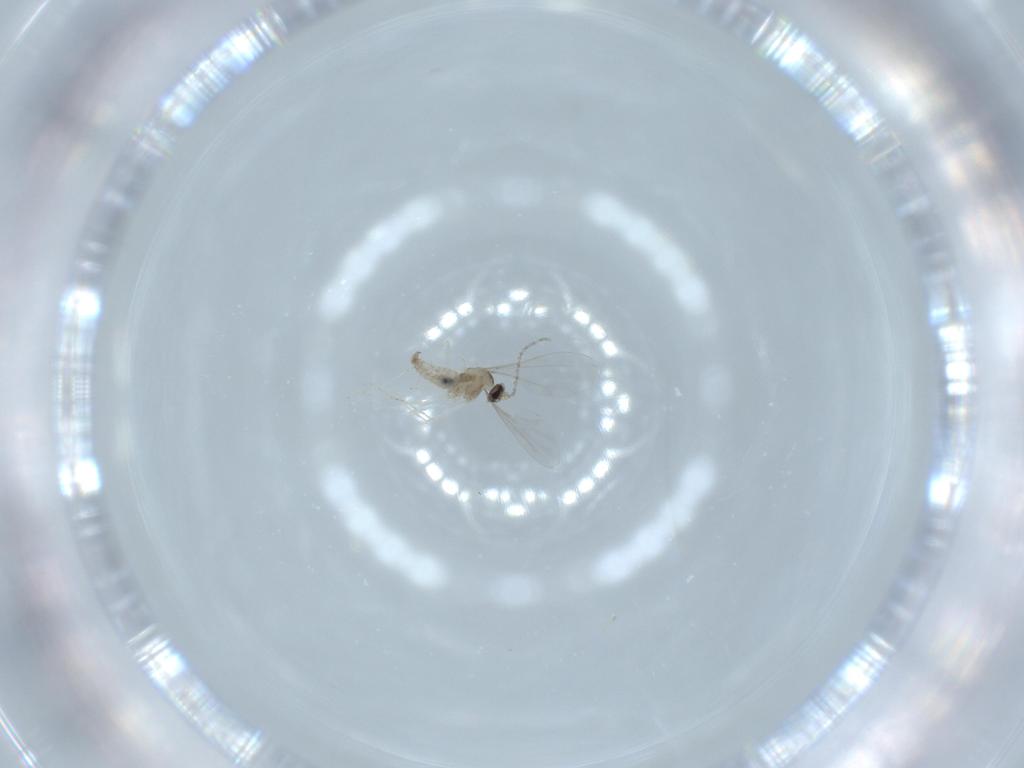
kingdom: Animalia
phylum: Arthropoda
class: Insecta
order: Diptera
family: Cecidomyiidae
